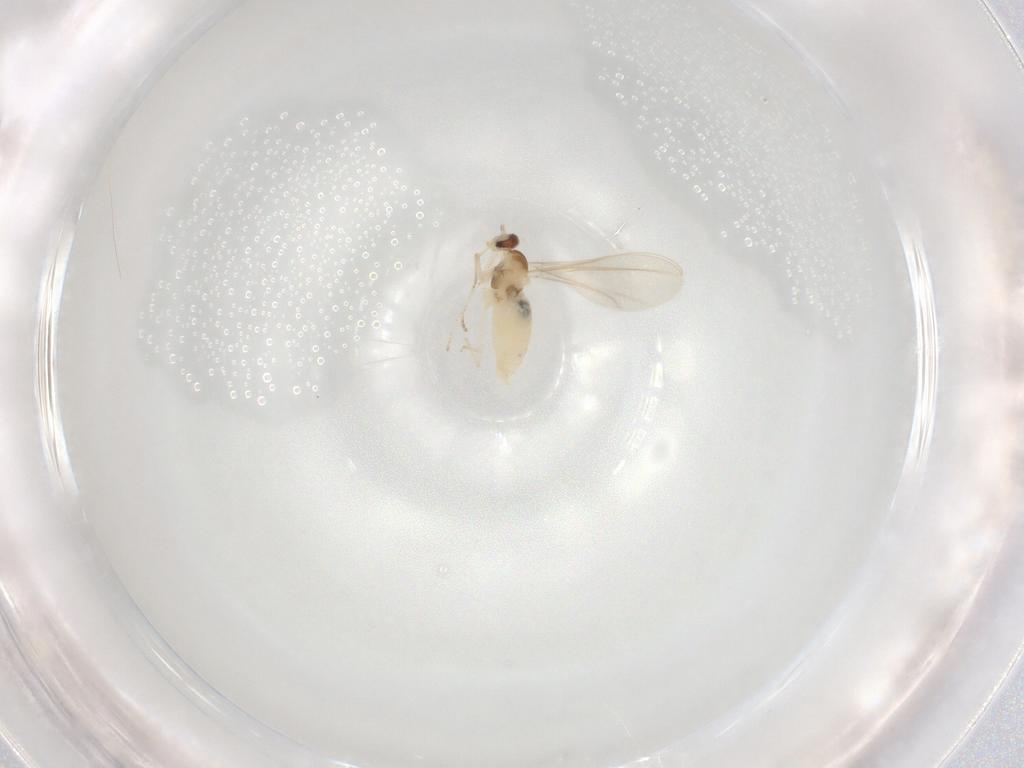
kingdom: Animalia
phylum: Arthropoda
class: Insecta
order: Diptera
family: Cecidomyiidae
